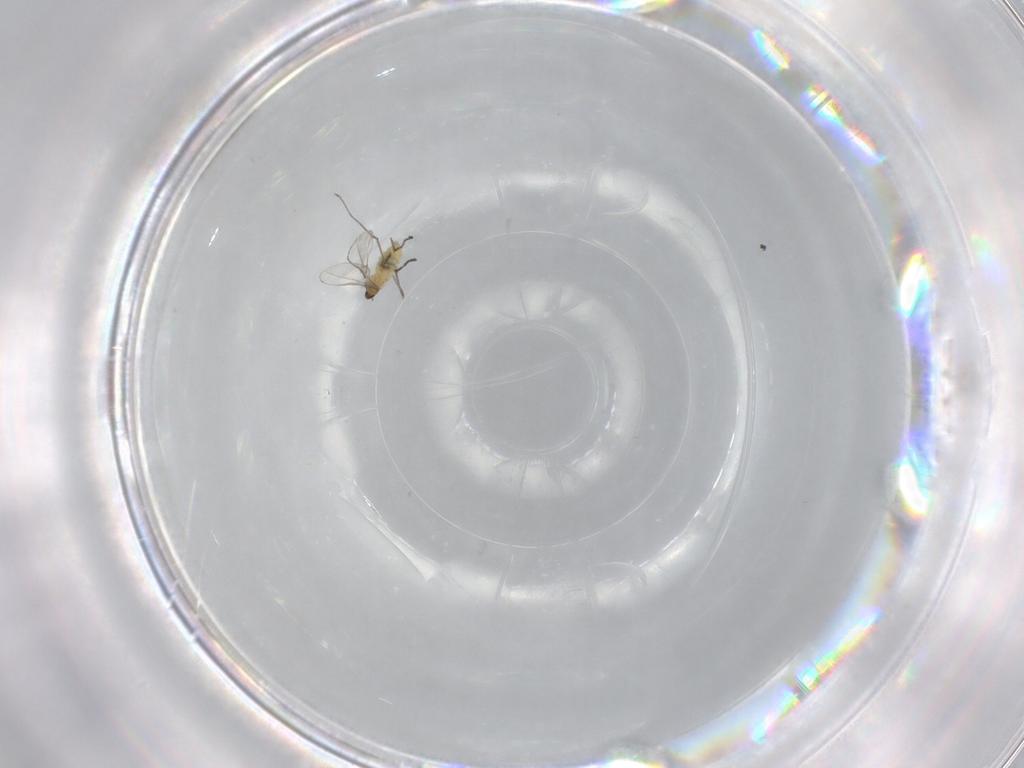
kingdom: Animalia
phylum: Arthropoda
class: Insecta
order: Diptera
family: Cecidomyiidae
